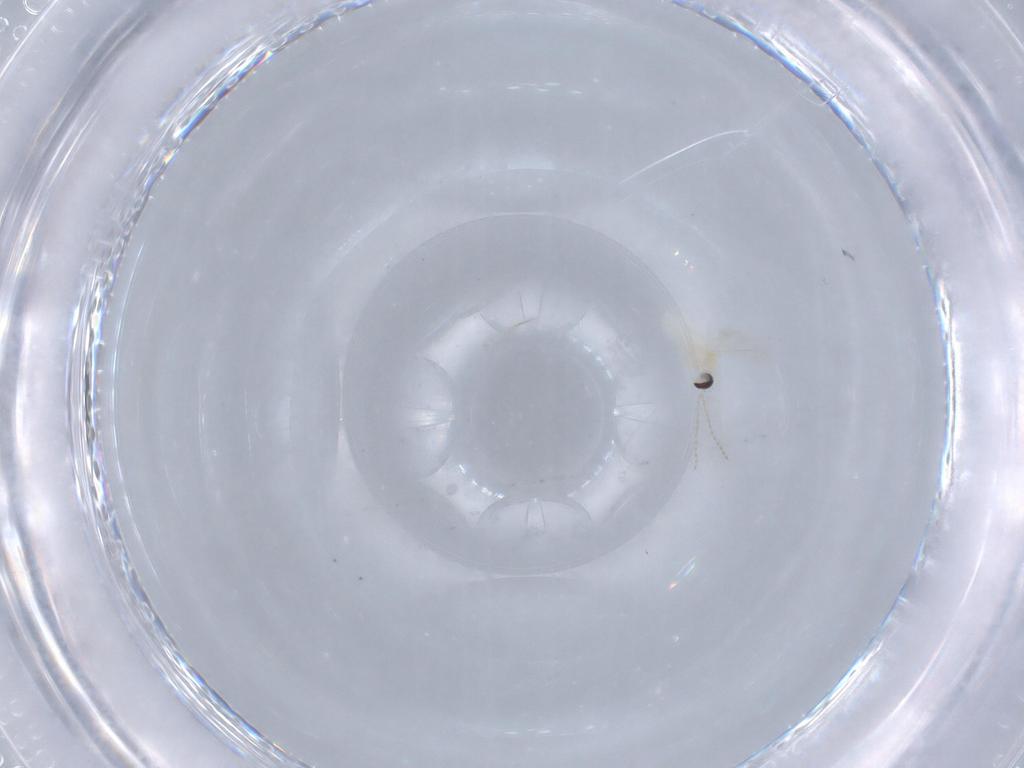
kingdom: Animalia
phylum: Arthropoda
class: Insecta
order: Diptera
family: Cecidomyiidae
